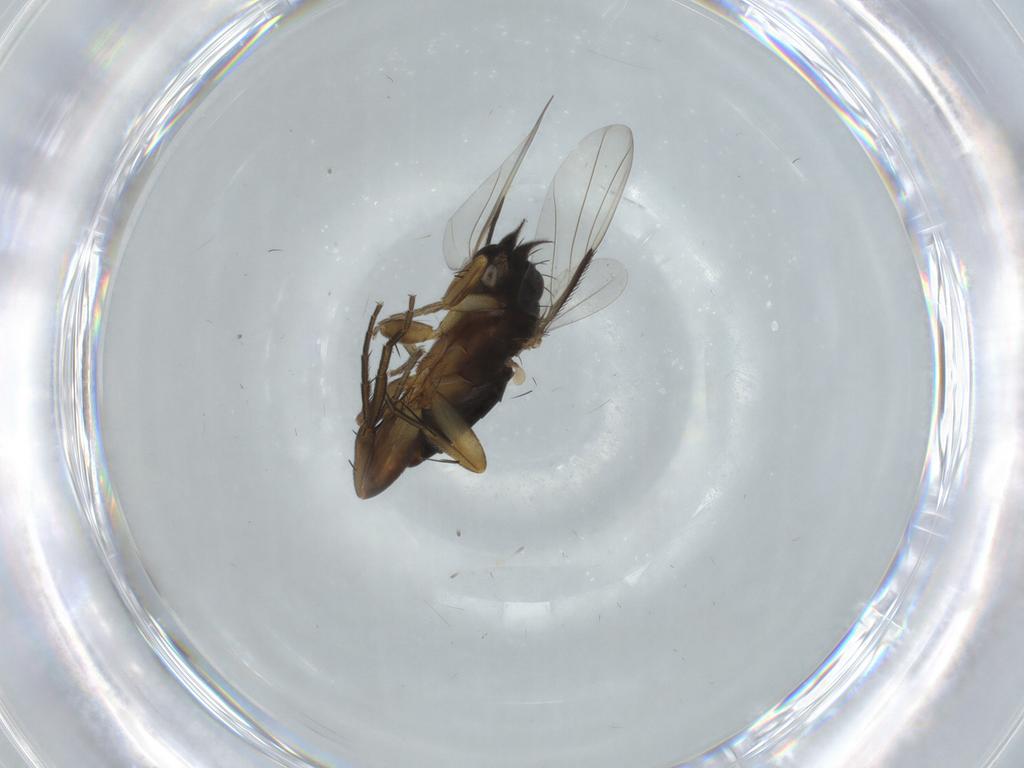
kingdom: Animalia
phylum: Arthropoda
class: Insecta
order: Diptera
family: Phoridae
